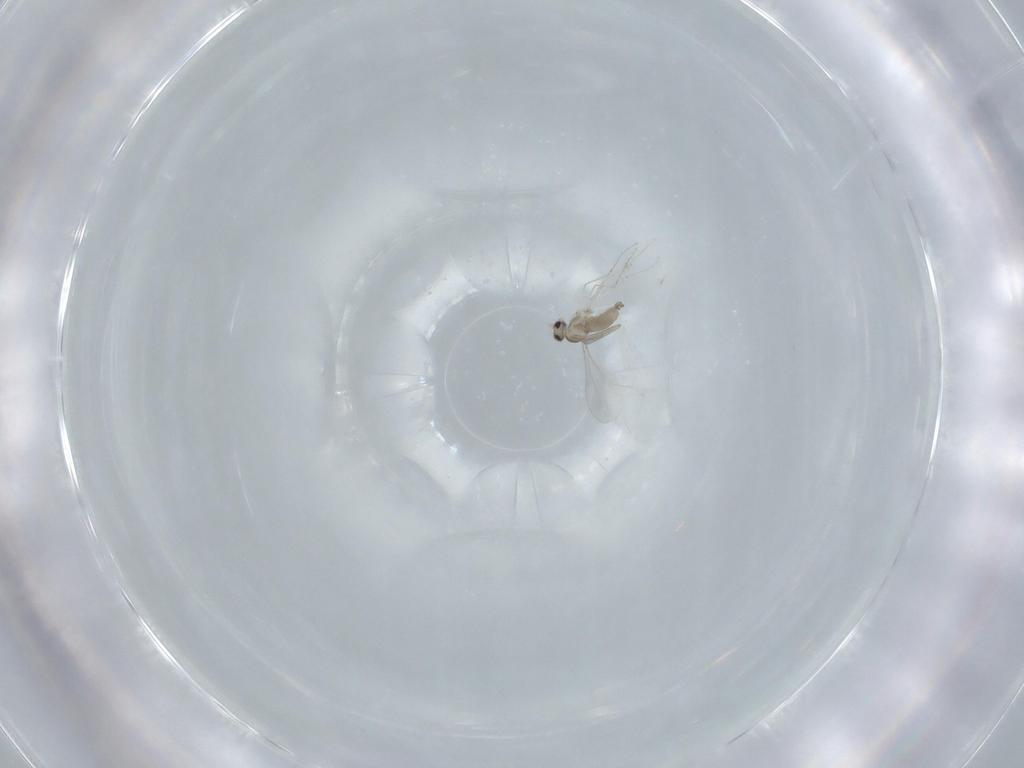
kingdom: Animalia
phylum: Arthropoda
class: Insecta
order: Diptera
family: Cecidomyiidae
